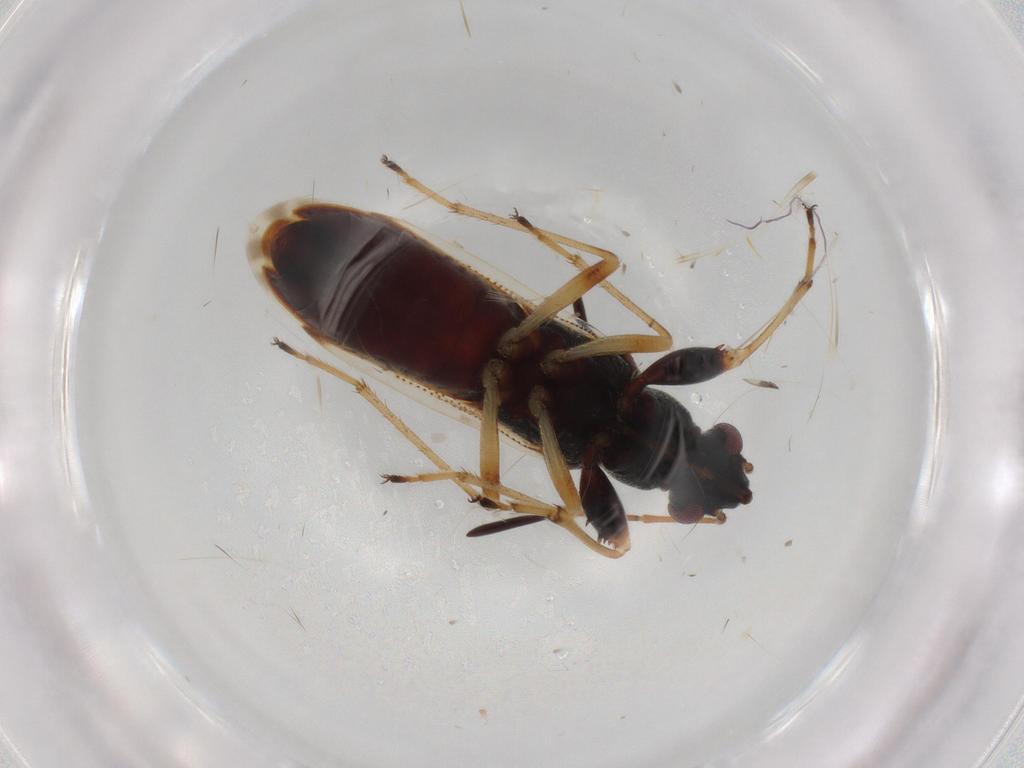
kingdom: Animalia
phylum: Arthropoda
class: Insecta
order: Hemiptera
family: Rhyparochromidae
